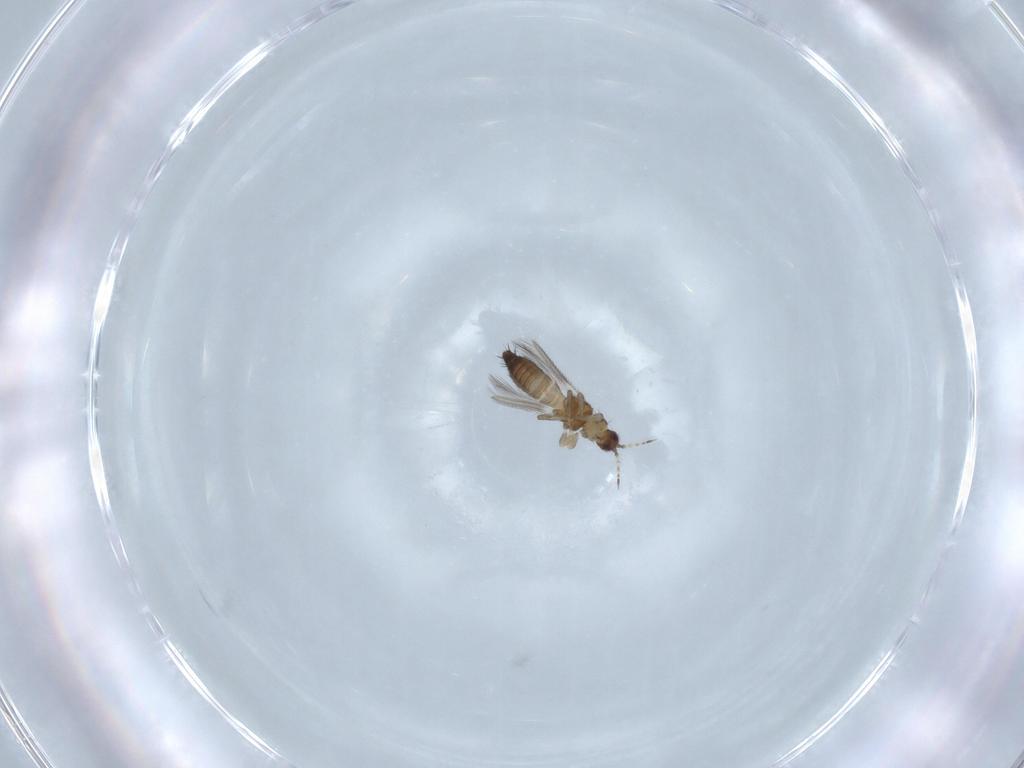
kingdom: Animalia
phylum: Arthropoda
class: Insecta
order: Thysanoptera
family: Thripidae
